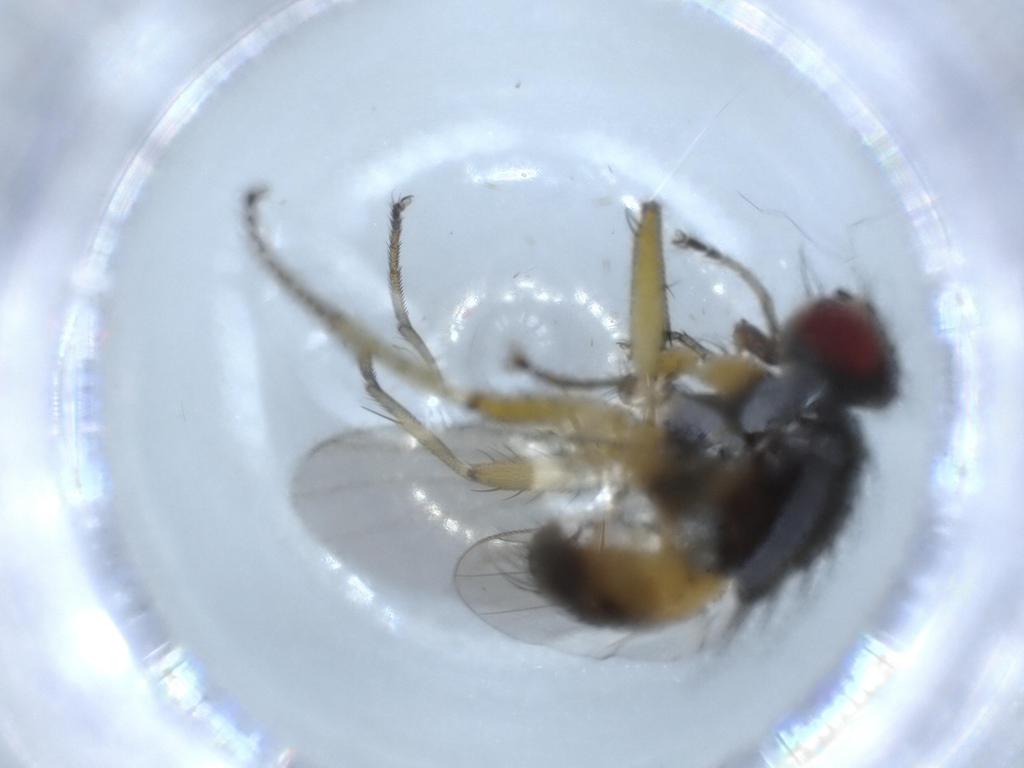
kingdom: Animalia
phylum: Arthropoda
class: Insecta
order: Diptera
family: Muscidae
